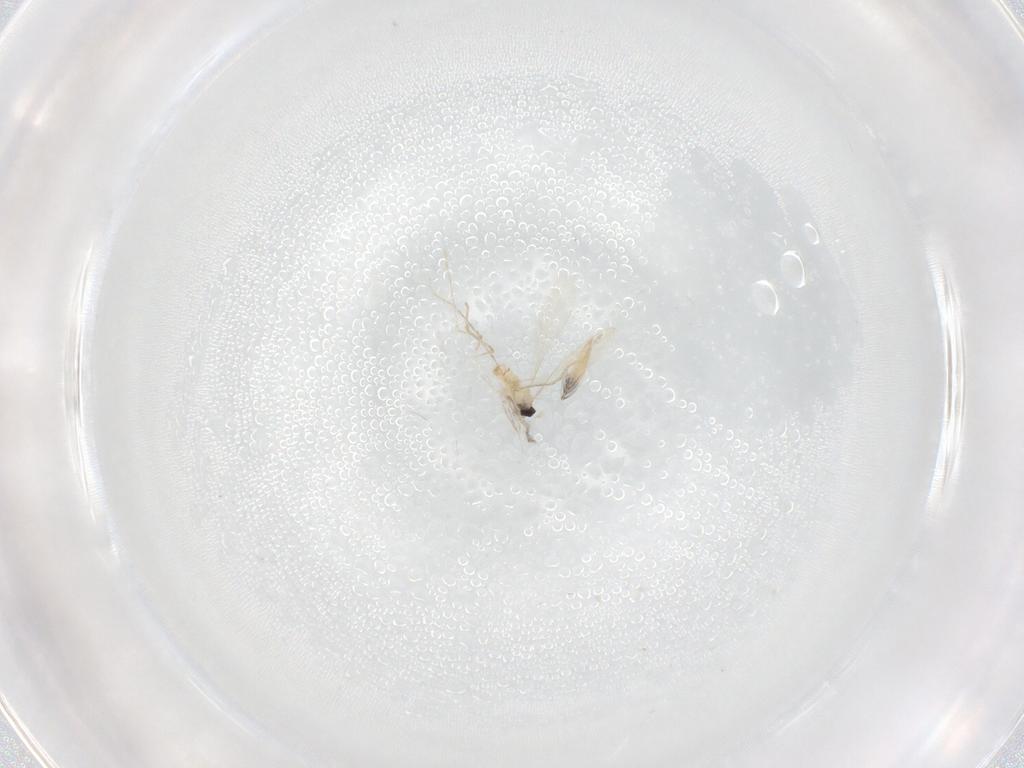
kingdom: Animalia
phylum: Arthropoda
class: Insecta
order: Diptera
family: Cecidomyiidae
